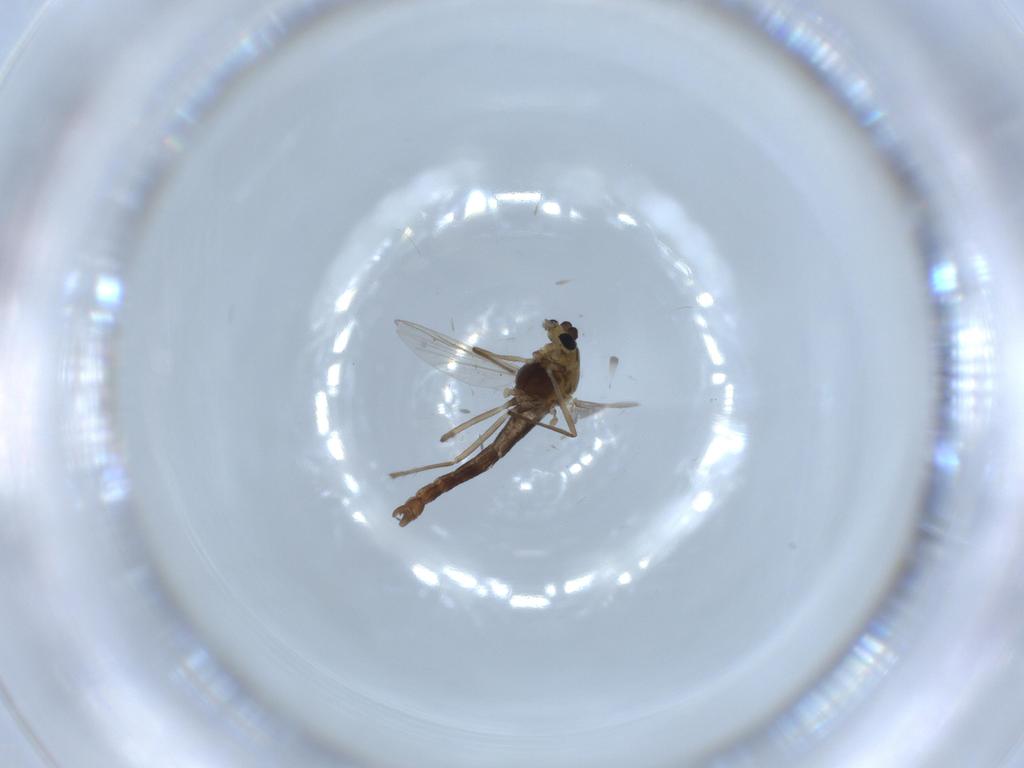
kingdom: Animalia
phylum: Arthropoda
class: Insecta
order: Diptera
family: Chironomidae
